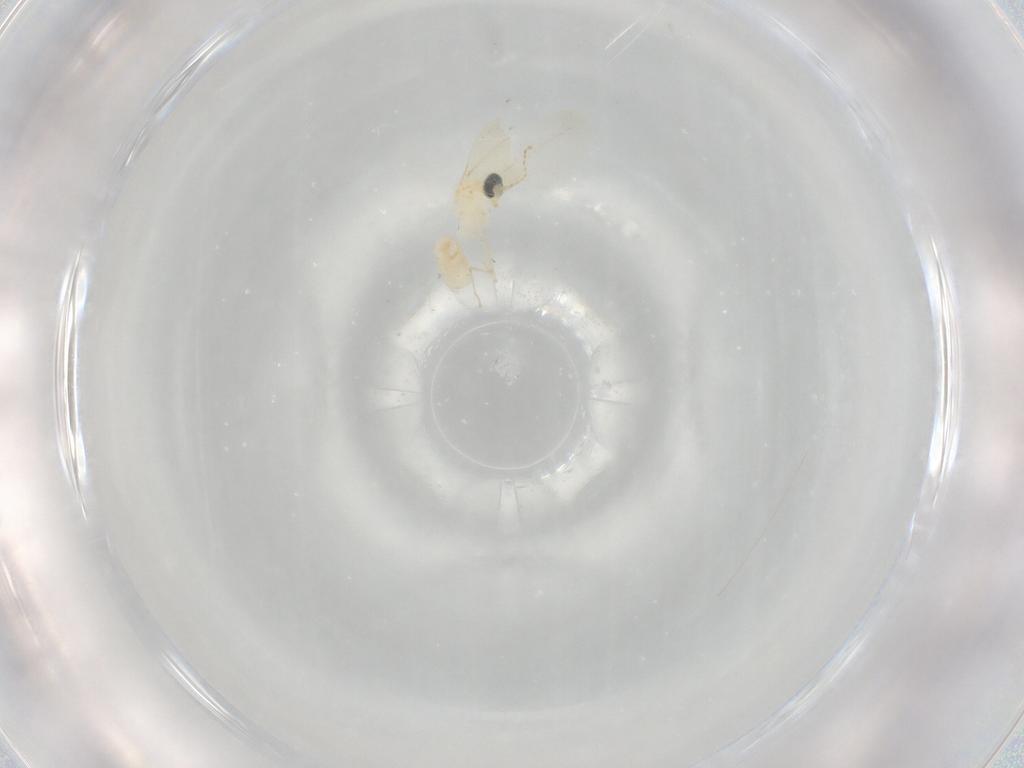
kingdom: Animalia
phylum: Arthropoda
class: Insecta
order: Diptera
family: Cecidomyiidae
